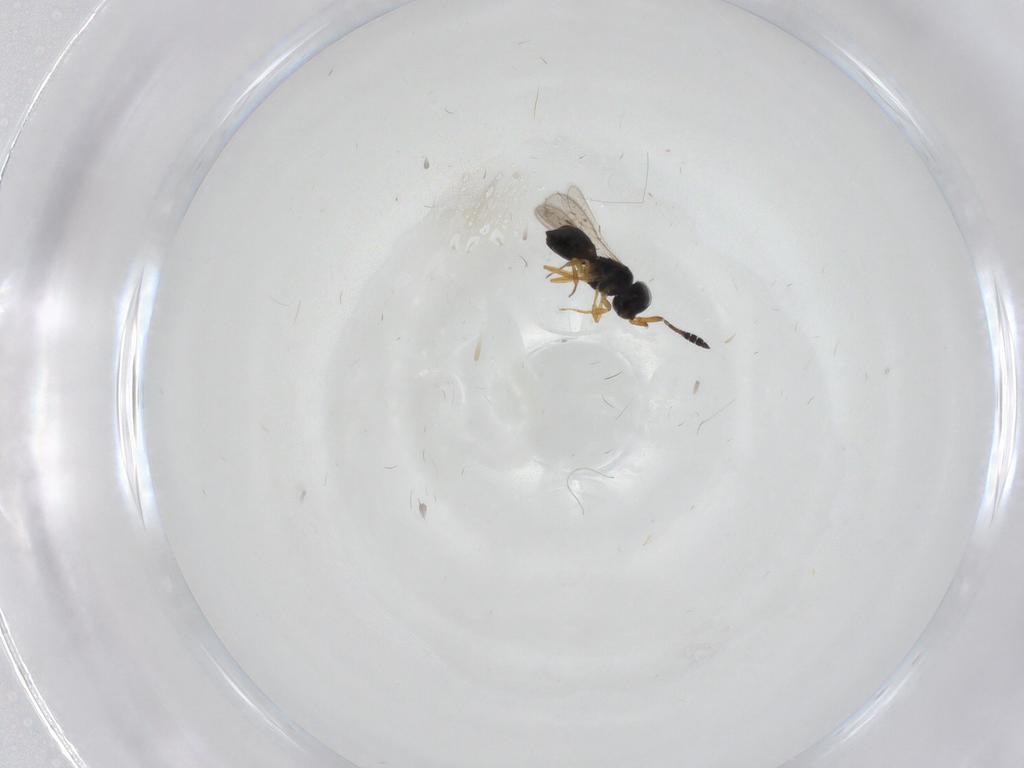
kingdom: Animalia
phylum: Arthropoda
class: Insecta
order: Hymenoptera
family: Scelionidae
